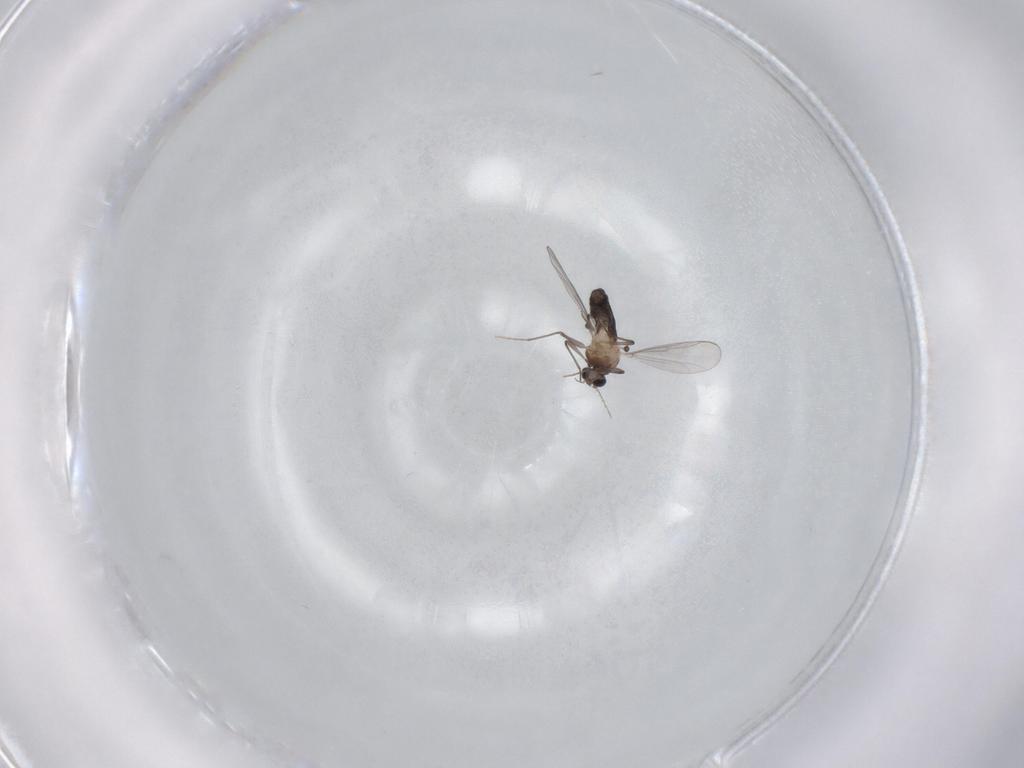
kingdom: Animalia
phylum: Arthropoda
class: Insecta
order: Diptera
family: Chironomidae
